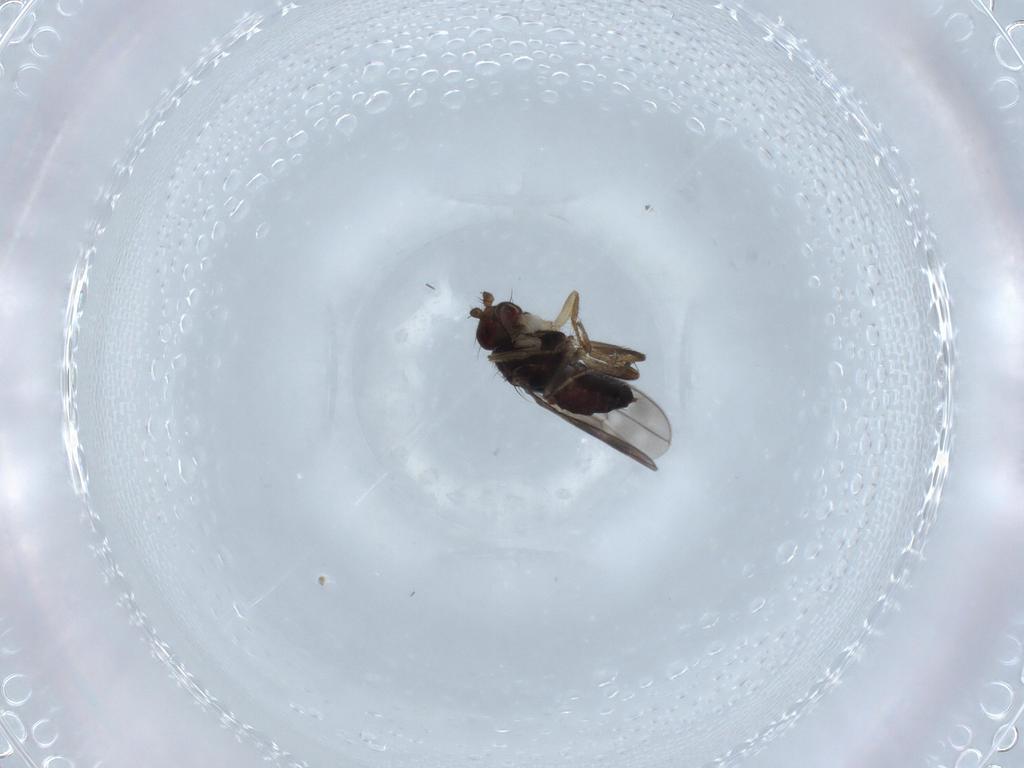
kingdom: Animalia
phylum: Arthropoda
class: Insecta
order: Diptera
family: Sphaeroceridae
